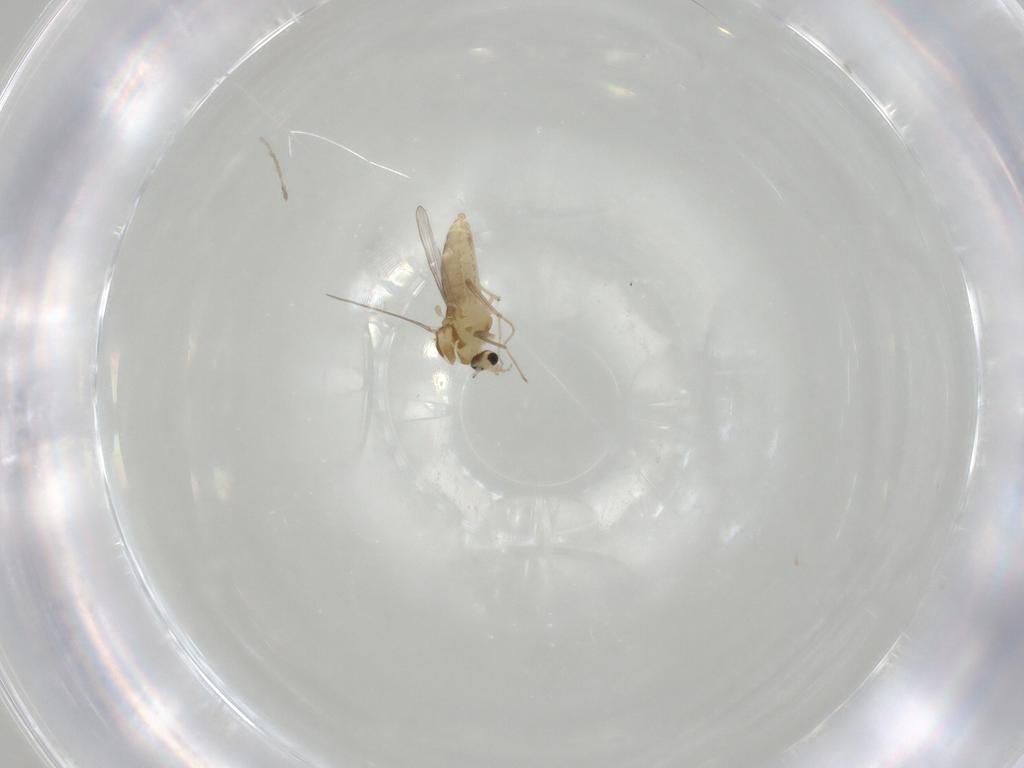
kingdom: Animalia
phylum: Arthropoda
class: Insecta
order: Diptera
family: Chironomidae
